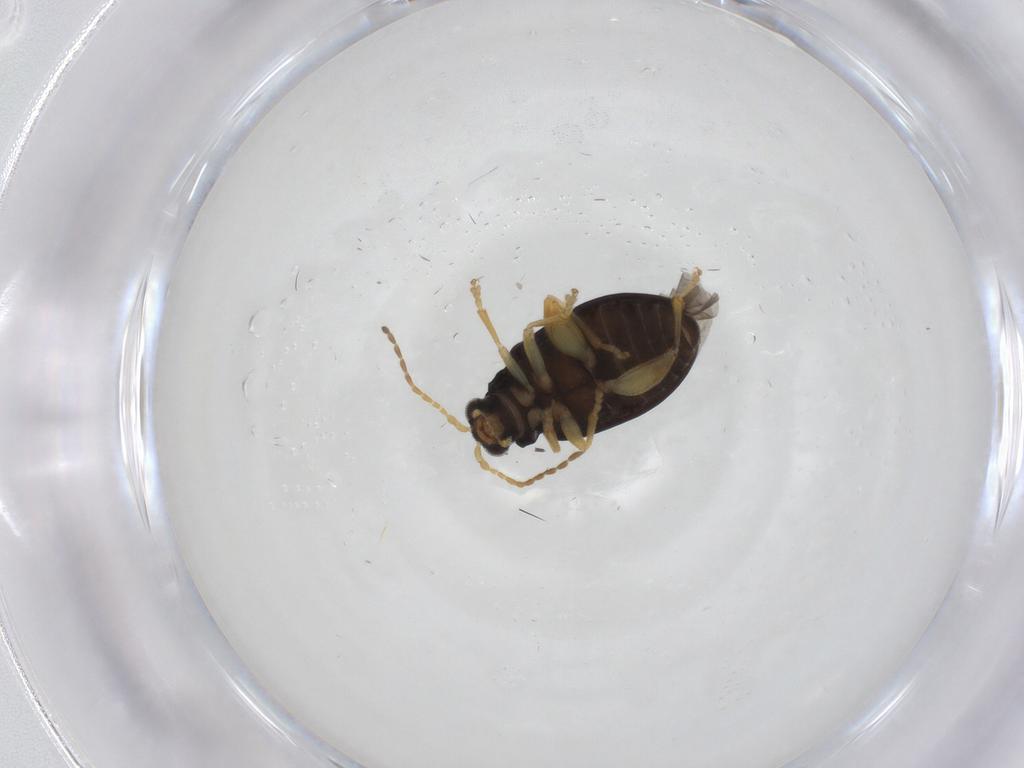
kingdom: Animalia
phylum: Arthropoda
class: Insecta
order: Coleoptera
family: Chrysomelidae
